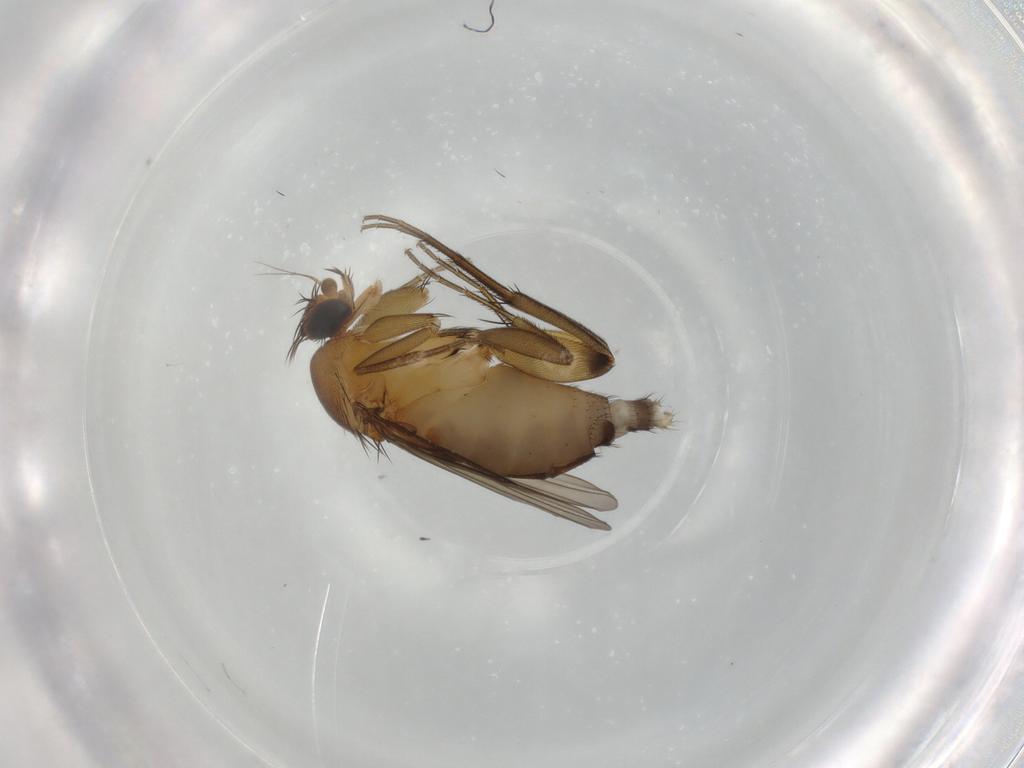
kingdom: Animalia
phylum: Arthropoda
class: Insecta
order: Diptera
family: Phoridae
